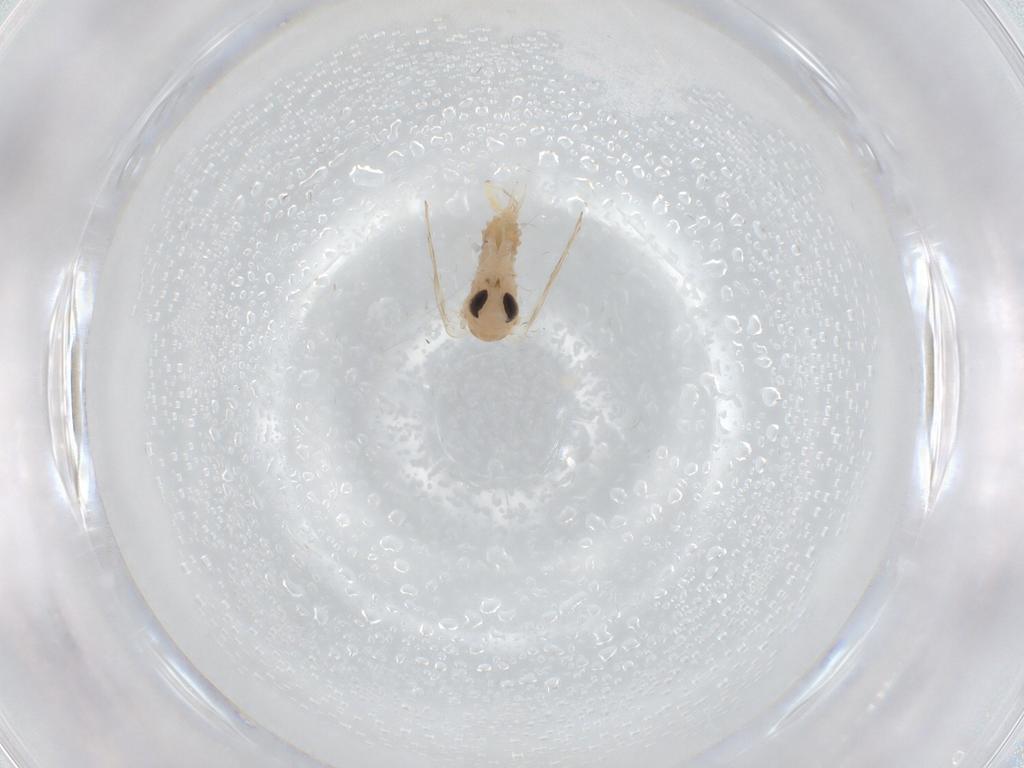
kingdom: Animalia
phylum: Arthropoda
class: Insecta
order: Diptera
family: Psychodidae
